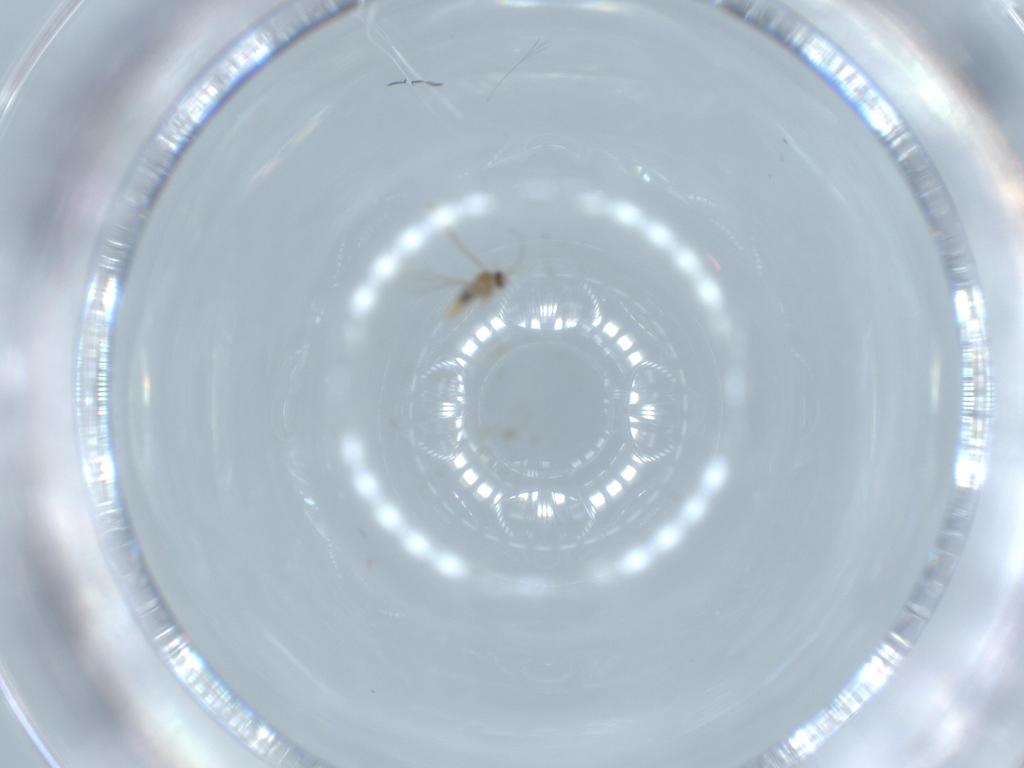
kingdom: Animalia
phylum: Arthropoda
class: Insecta
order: Diptera
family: Cecidomyiidae
